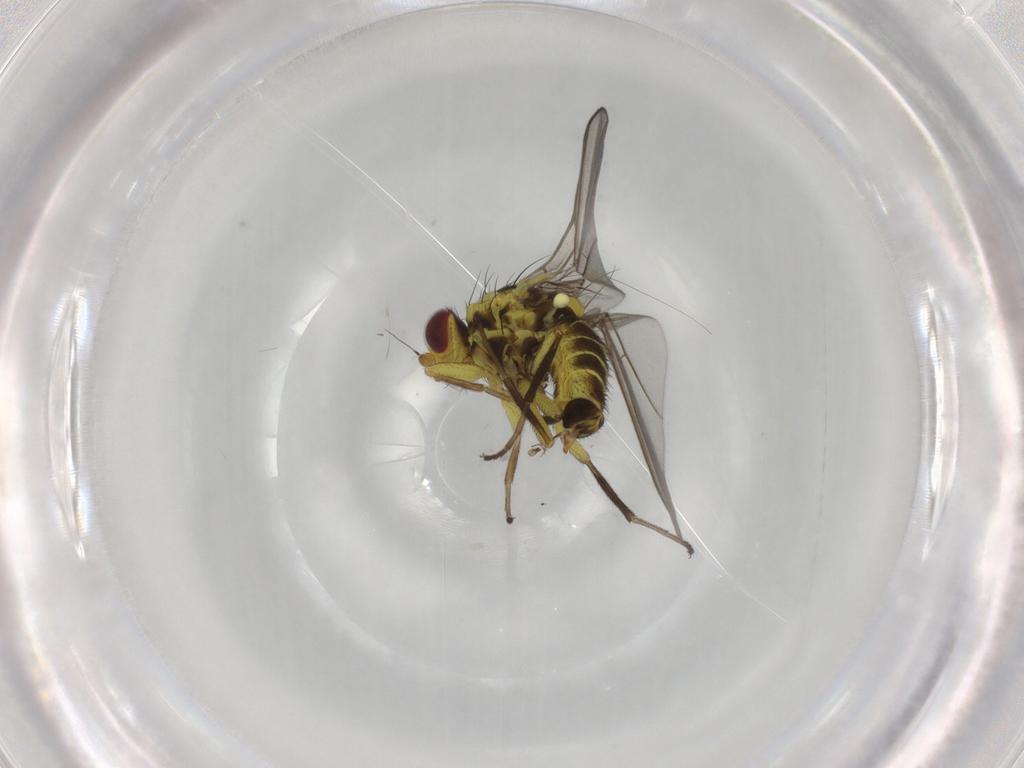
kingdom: Animalia
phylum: Arthropoda
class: Insecta
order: Diptera
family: Agromyzidae
